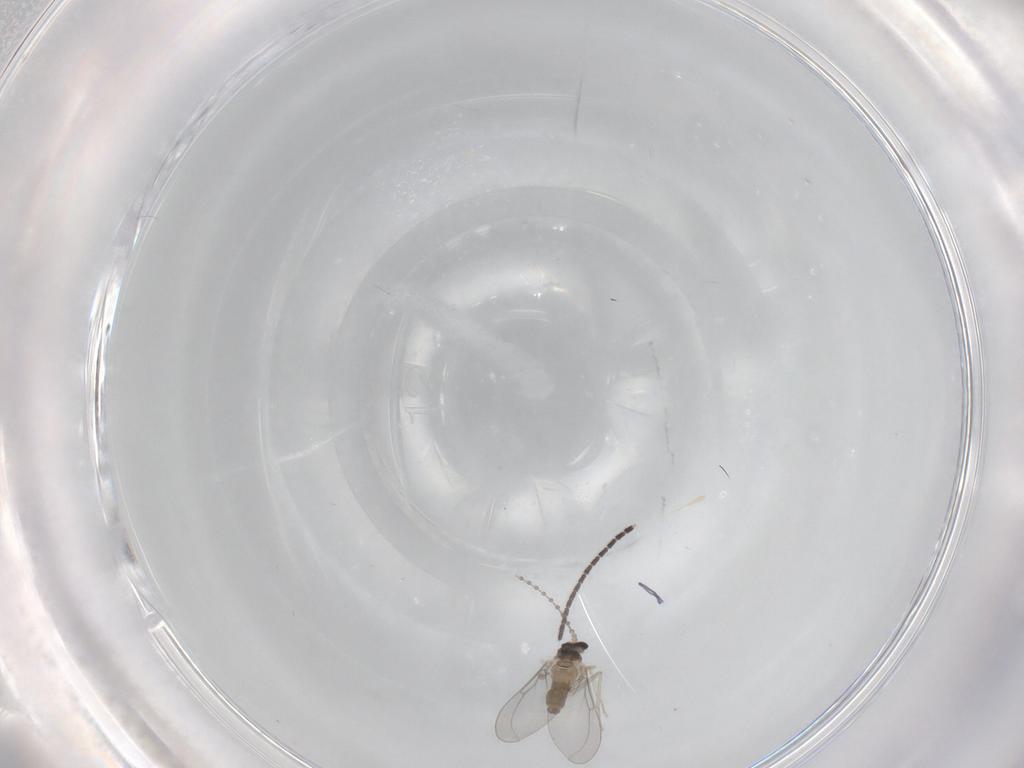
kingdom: Animalia
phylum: Arthropoda
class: Insecta
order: Diptera
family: Cecidomyiidae
